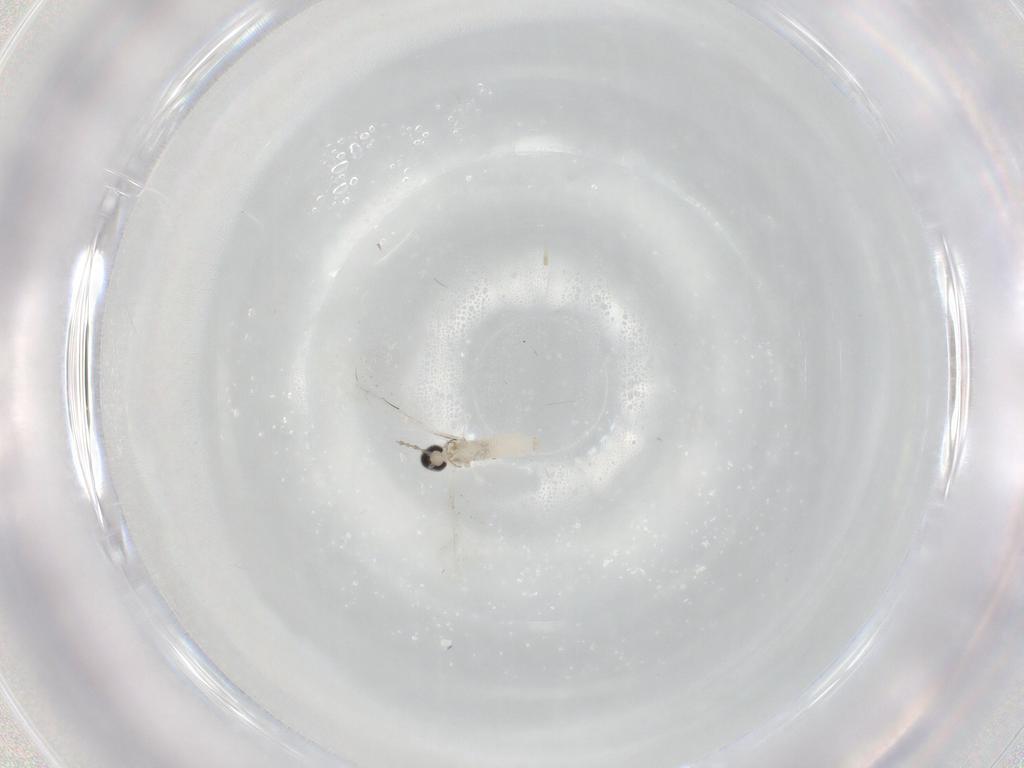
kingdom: Animalia
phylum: Arthropoda
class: Insecta
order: Diptera
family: Cecidomyiidae
